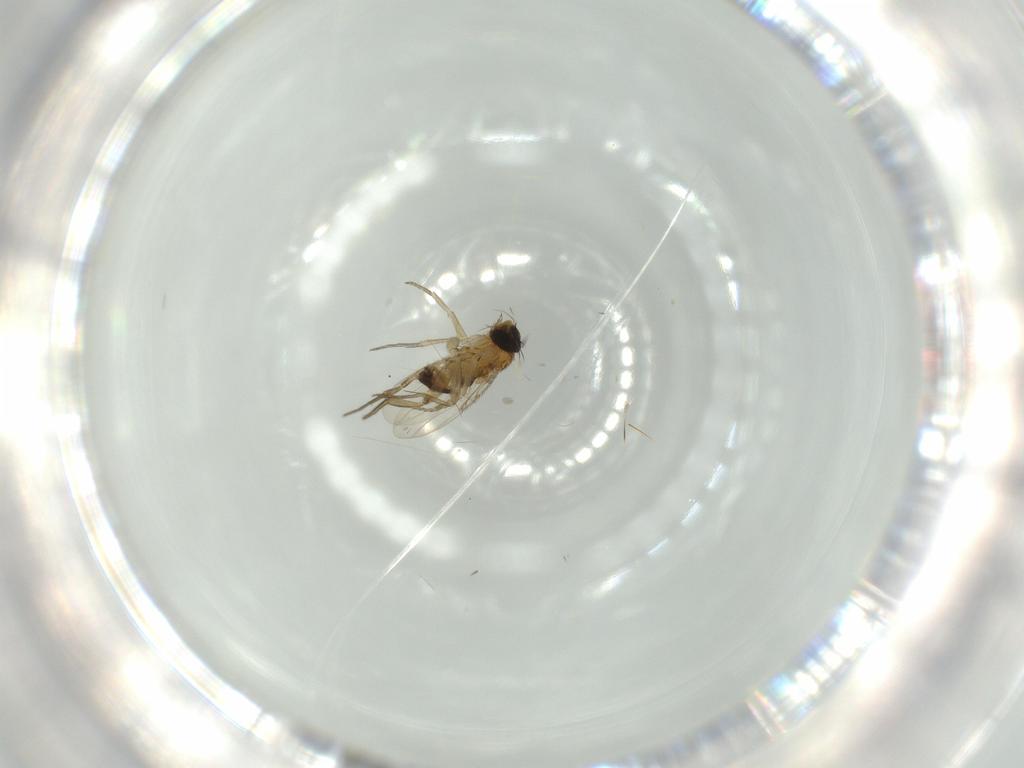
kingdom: Animalia
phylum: Arthropoda
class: Insecta
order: Diptera
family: Phoridae
